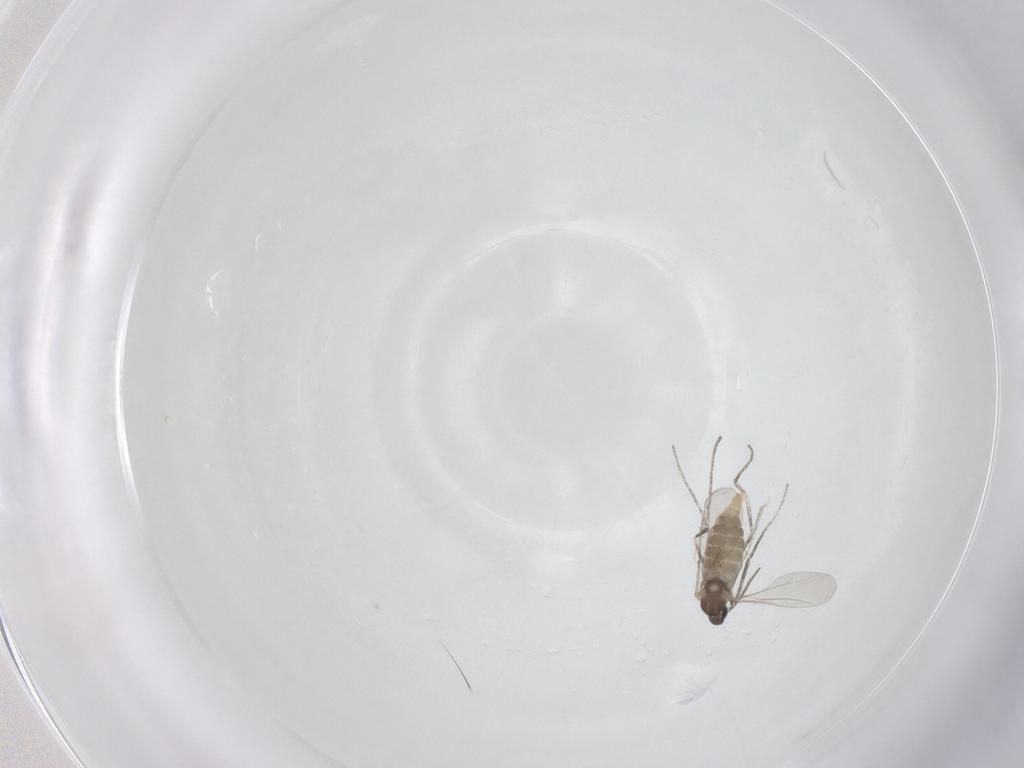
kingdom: Animalia
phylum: Arthropoda
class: Insecta
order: Diptera
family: Cecidomyiidae
